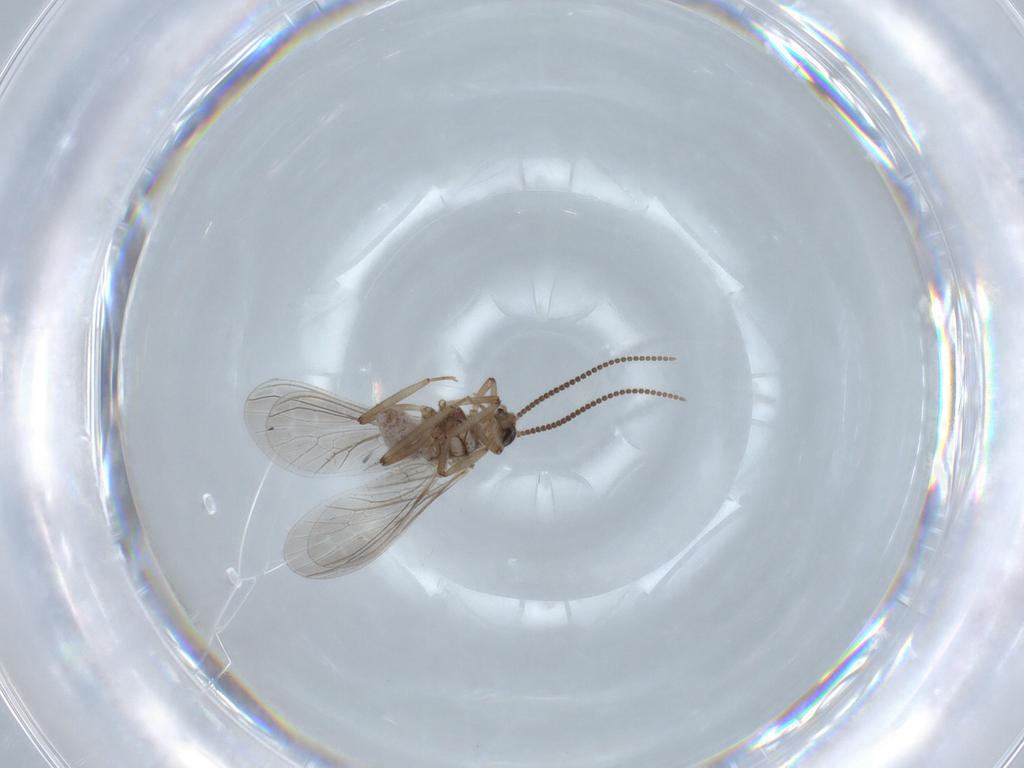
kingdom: Animalia
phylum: Arthropoda
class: Insecta
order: Neuroptera
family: Coniopterygidae
